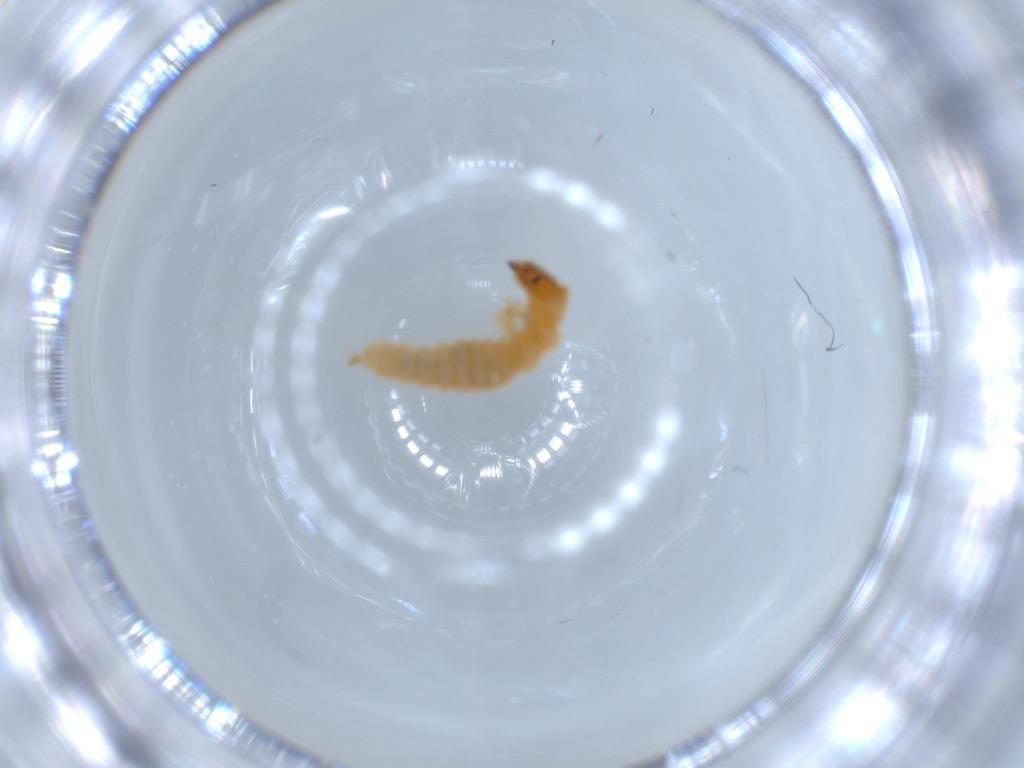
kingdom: Animalia
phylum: Arthropoda
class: Insecta
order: Coleoptera
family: Melyridae
